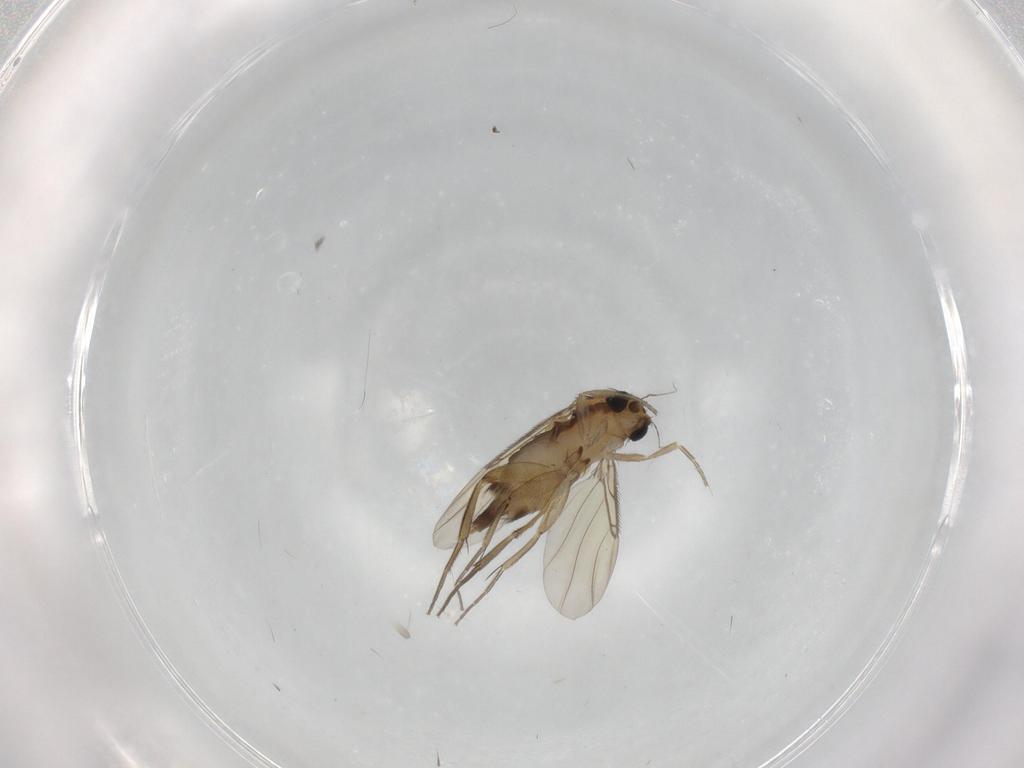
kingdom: Animalia
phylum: Arthropoda
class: Insecta
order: Diptera
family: Phoridae
